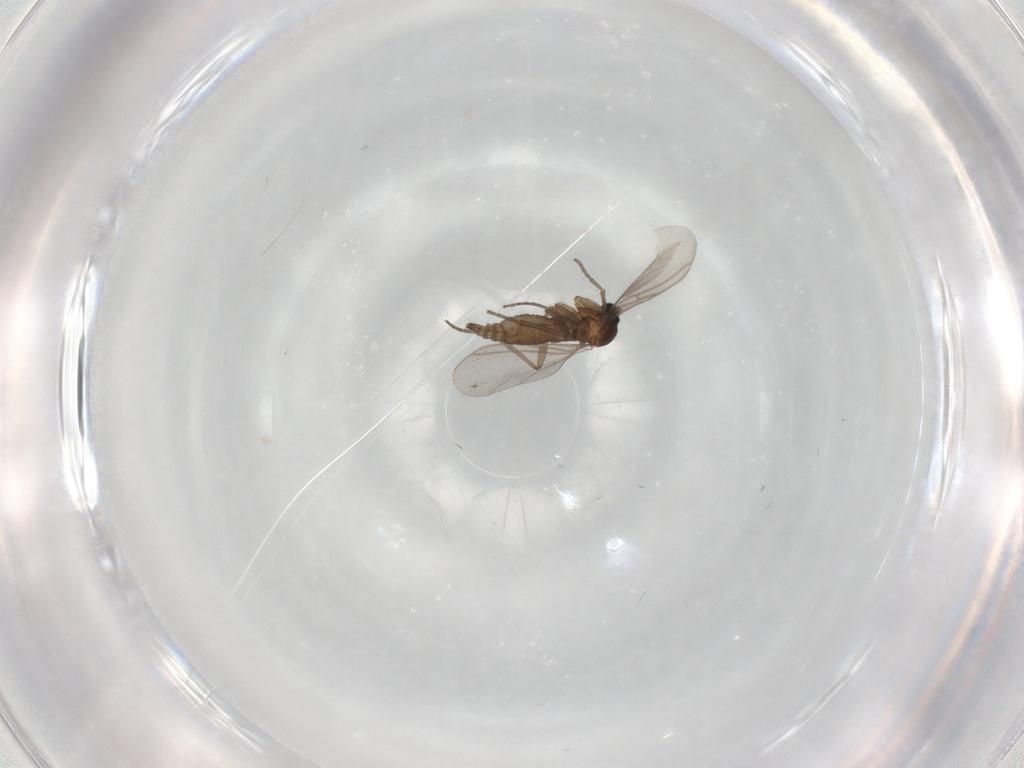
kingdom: Animalia
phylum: Arthropoda
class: Insecta
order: Diptera
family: Sciaridae
